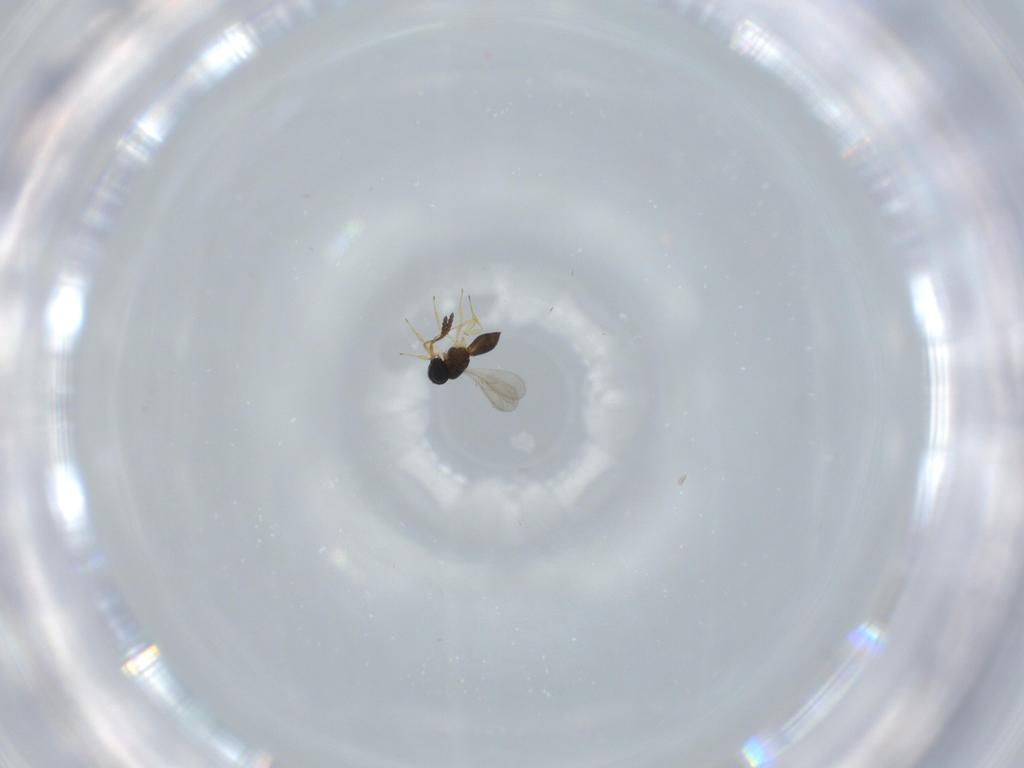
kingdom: Animalia
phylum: Arthropoda
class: Insecta
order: Hymenoptera
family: Scelionidae
